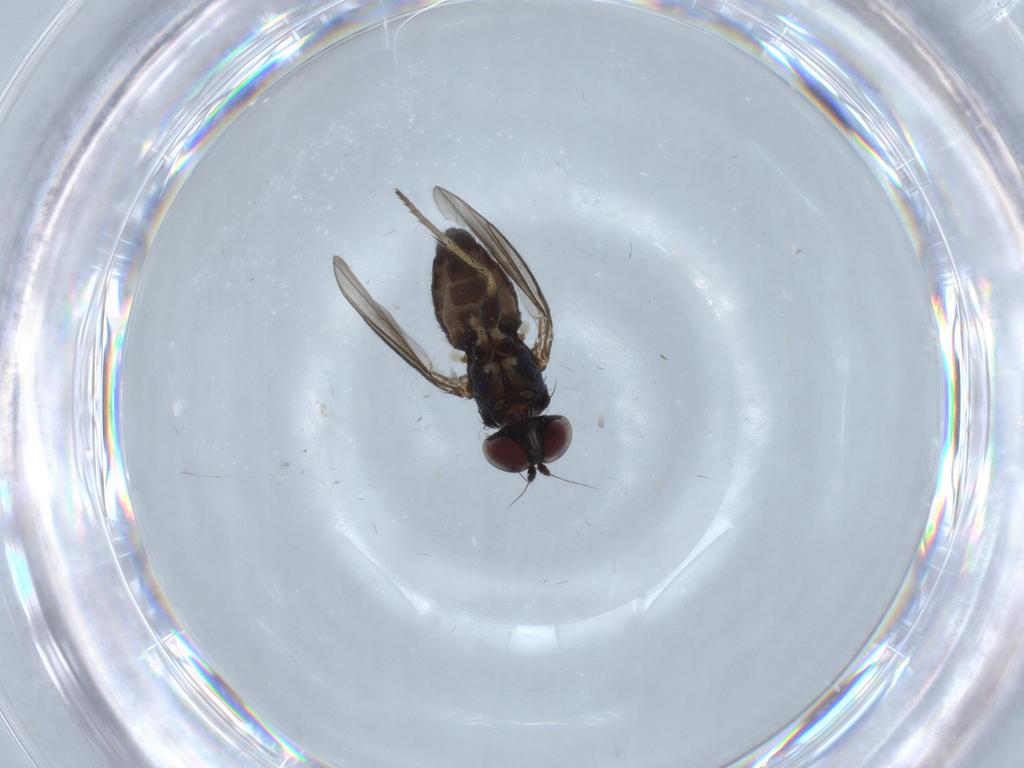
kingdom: Animalia
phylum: Arthropoda
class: Insecta
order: Diptera
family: Dolichopodidae
